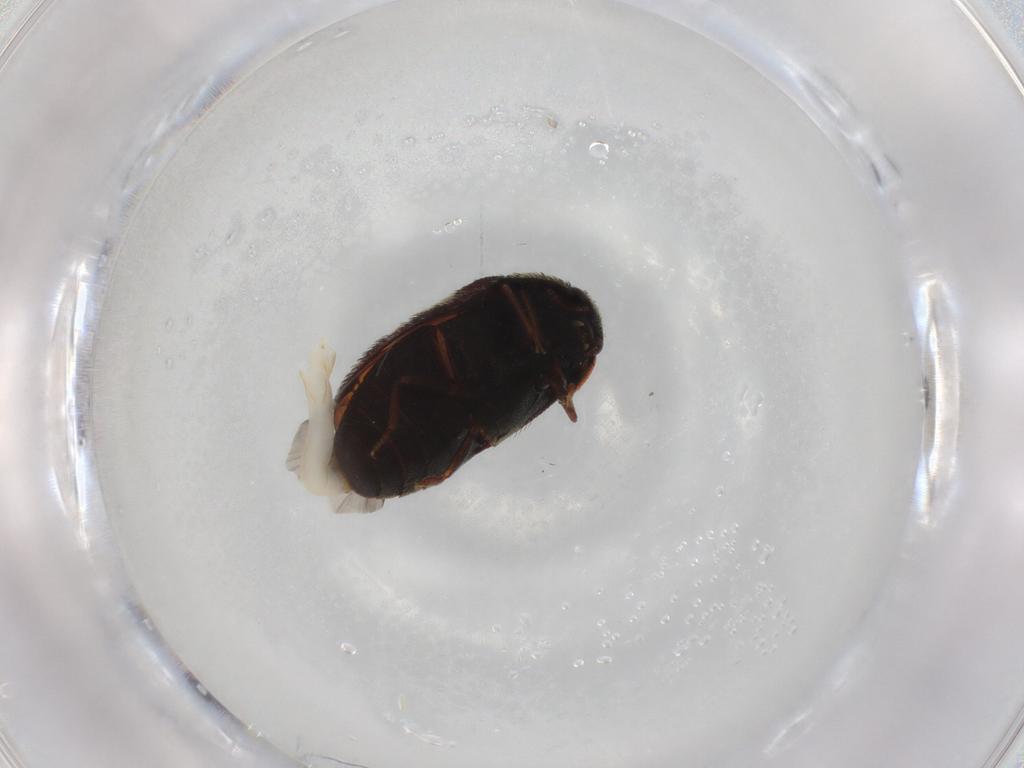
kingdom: Animalia
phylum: Arthropoda
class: Insecta
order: Coleoptera
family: Dermestidae
